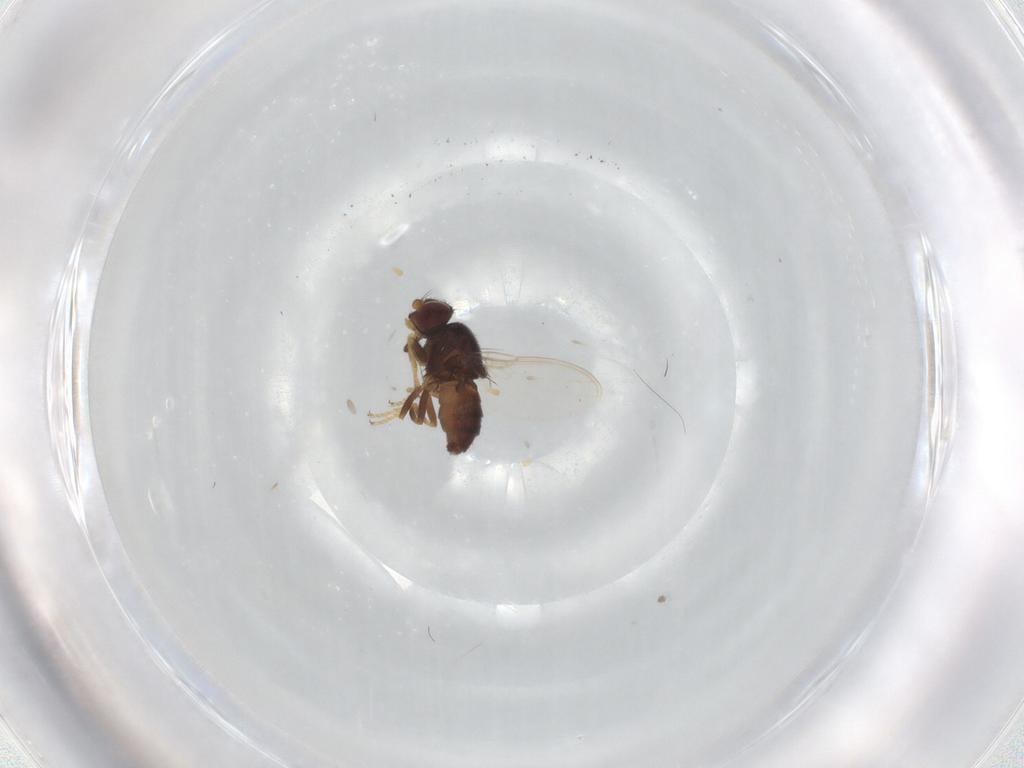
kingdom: Animalia
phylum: Arthropoda
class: Insecta
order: Diptera
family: Chloropidae
